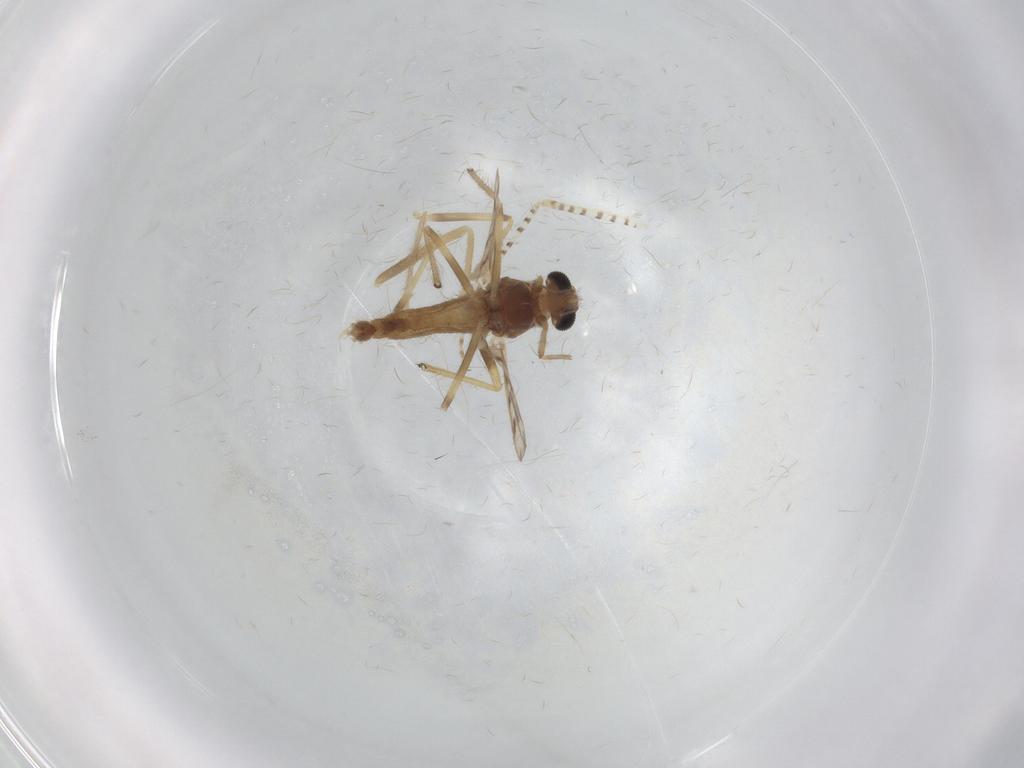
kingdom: Animalia
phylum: Arthropoda
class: Insecta
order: Diptera
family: Chironomidae
